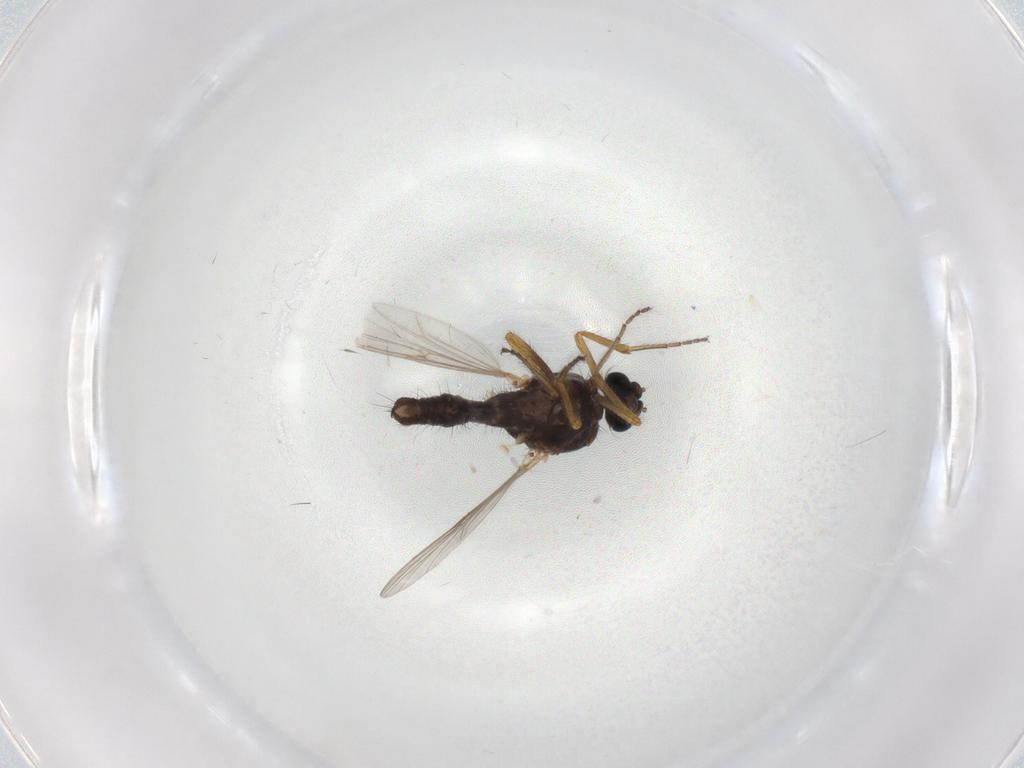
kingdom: Animalia
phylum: Arthropoda
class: Insecta
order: Diptera
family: Ceratopogonidae
